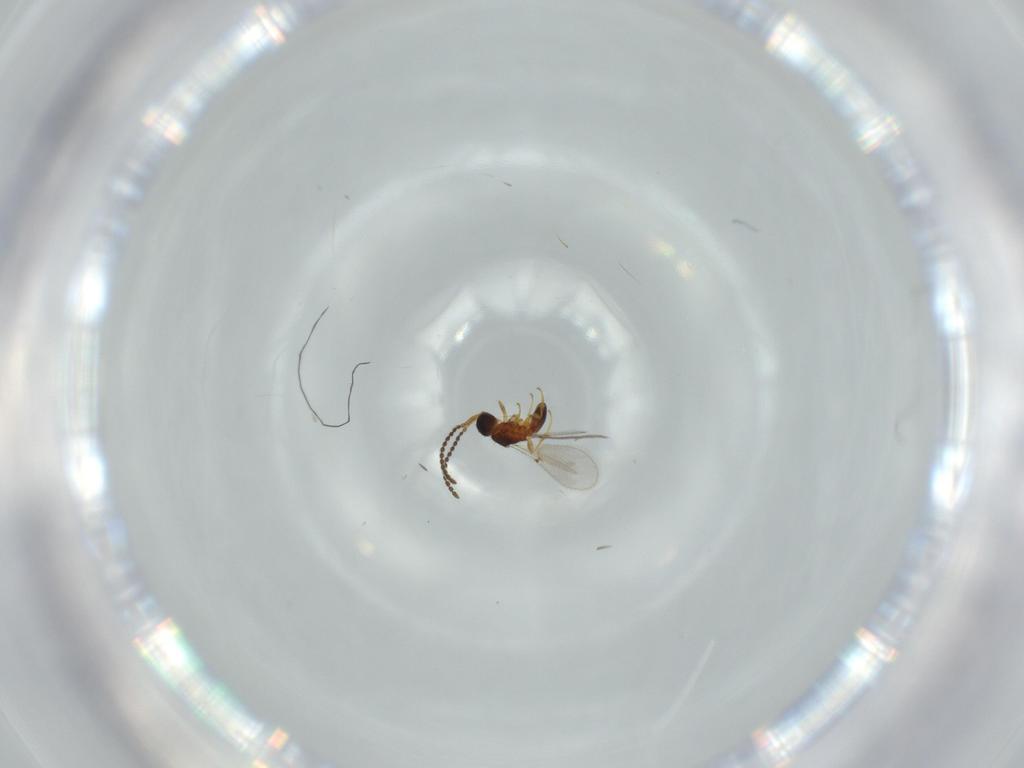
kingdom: Animalia
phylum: Arthropoda
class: Insecta
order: Hymenoptera
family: Diapriidae
